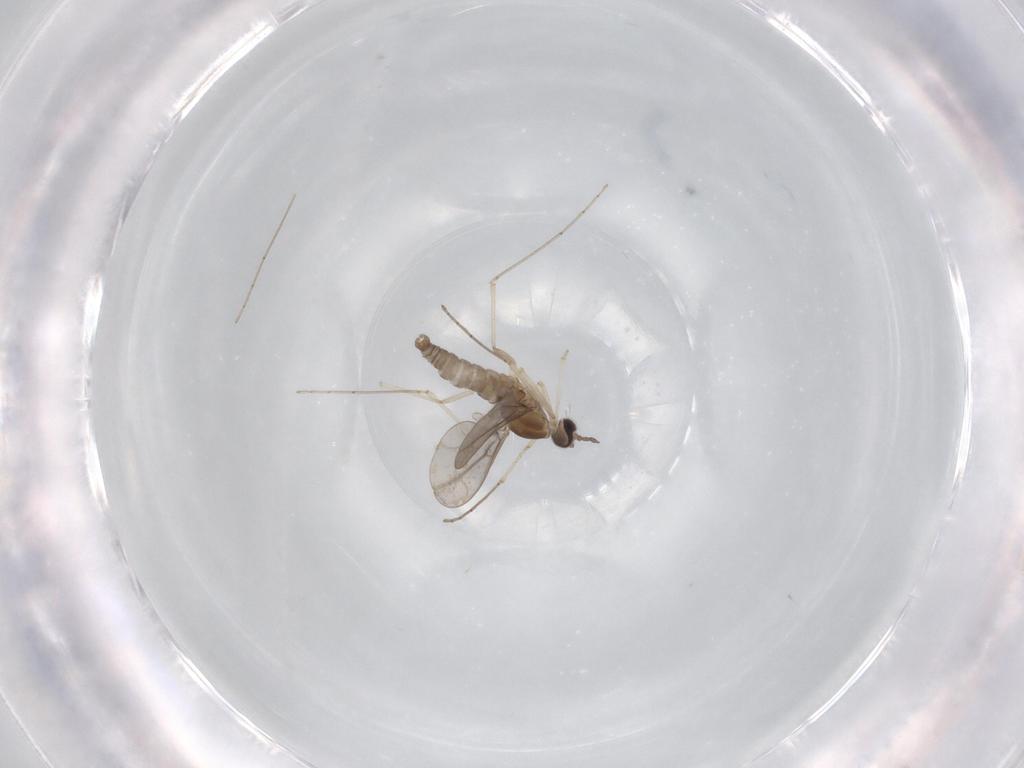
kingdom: Animalia
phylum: Arthropoda
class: Insecta
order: Diptera
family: Cecidomyiidae
